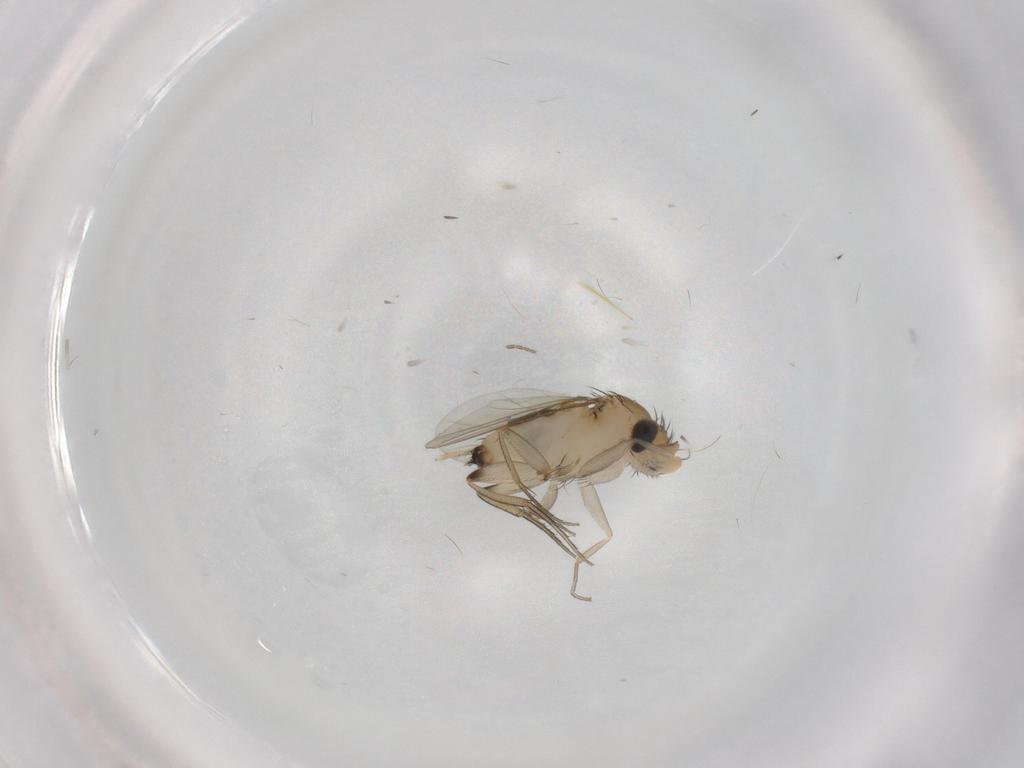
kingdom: Animalia
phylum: Arthropoda
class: Insecta
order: Diptera
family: Phoridae
